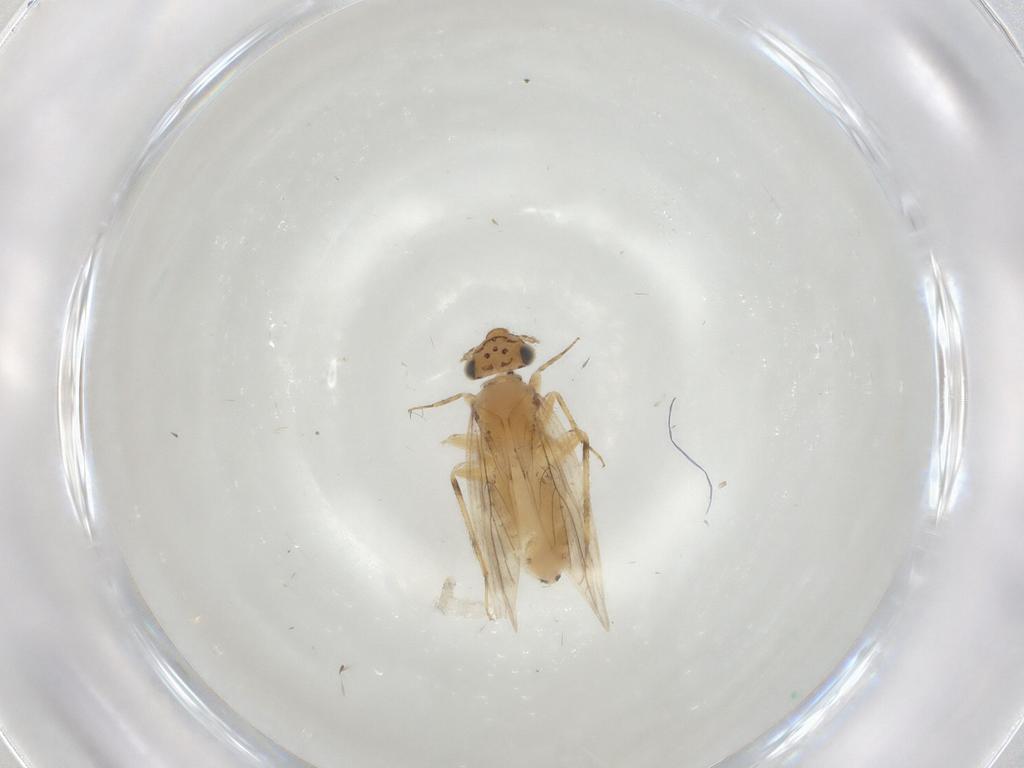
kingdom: Animalia
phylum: Arthropoda
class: Insecta
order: Psocodea
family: Lepidopsocidae
